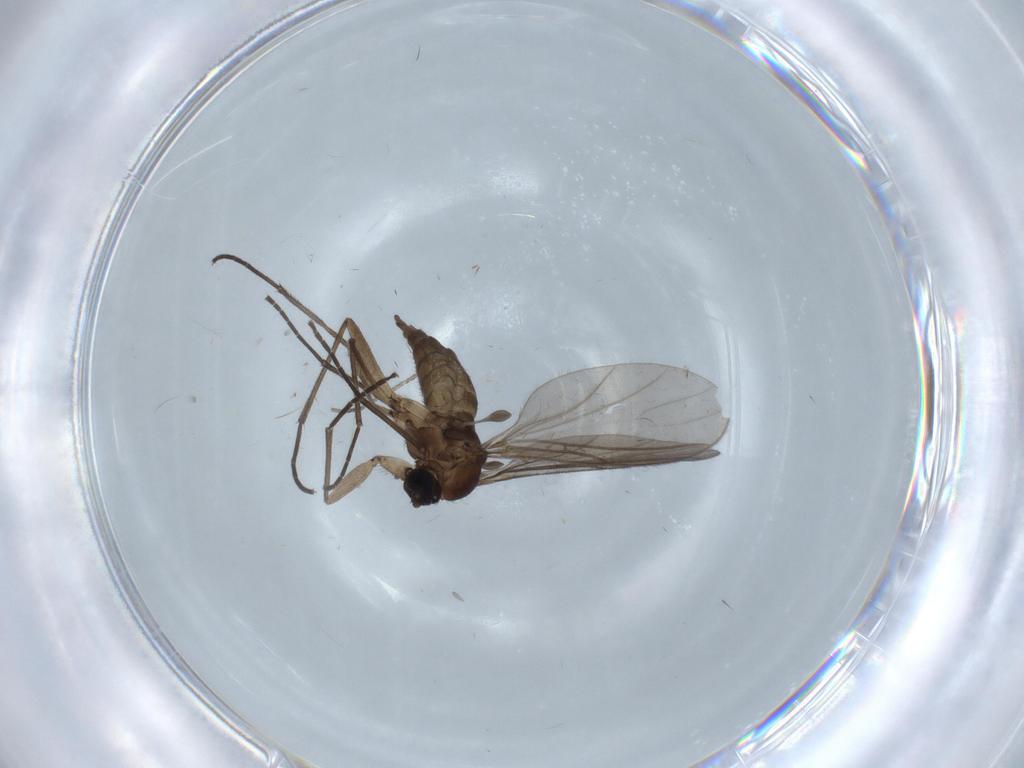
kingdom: Animalia
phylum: Arthropoda
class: Insecta
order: Diptera
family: Sciaridae
